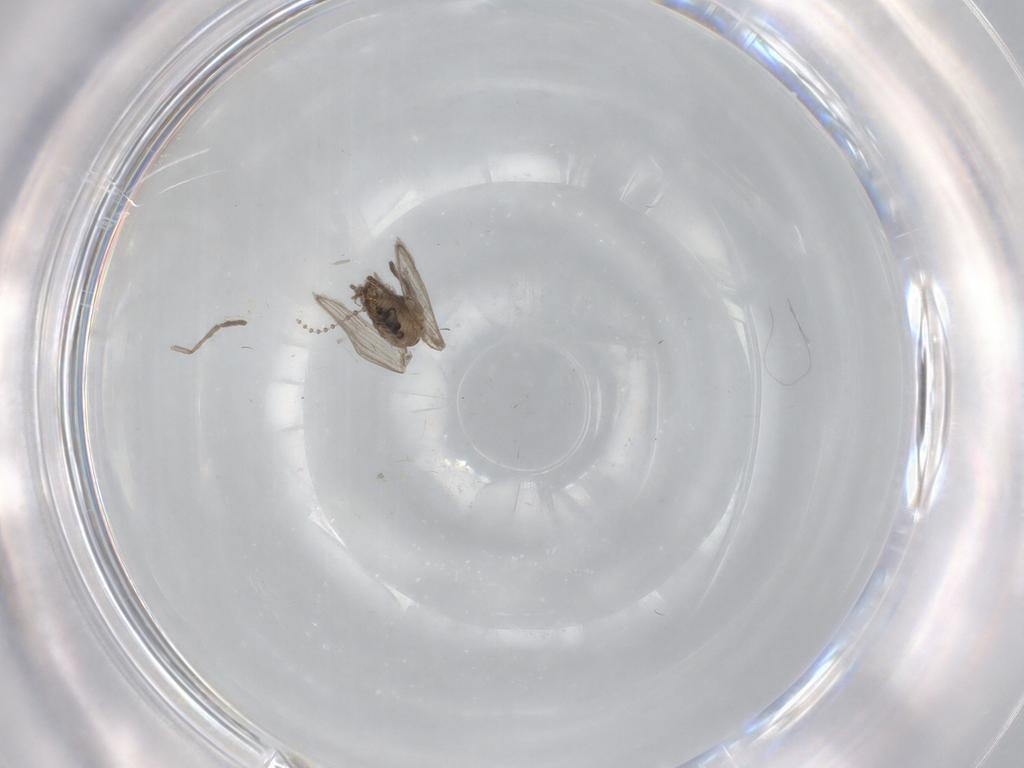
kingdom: Animalia
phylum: Arthropoda
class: Insecta
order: Diptera
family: Psychodidae
